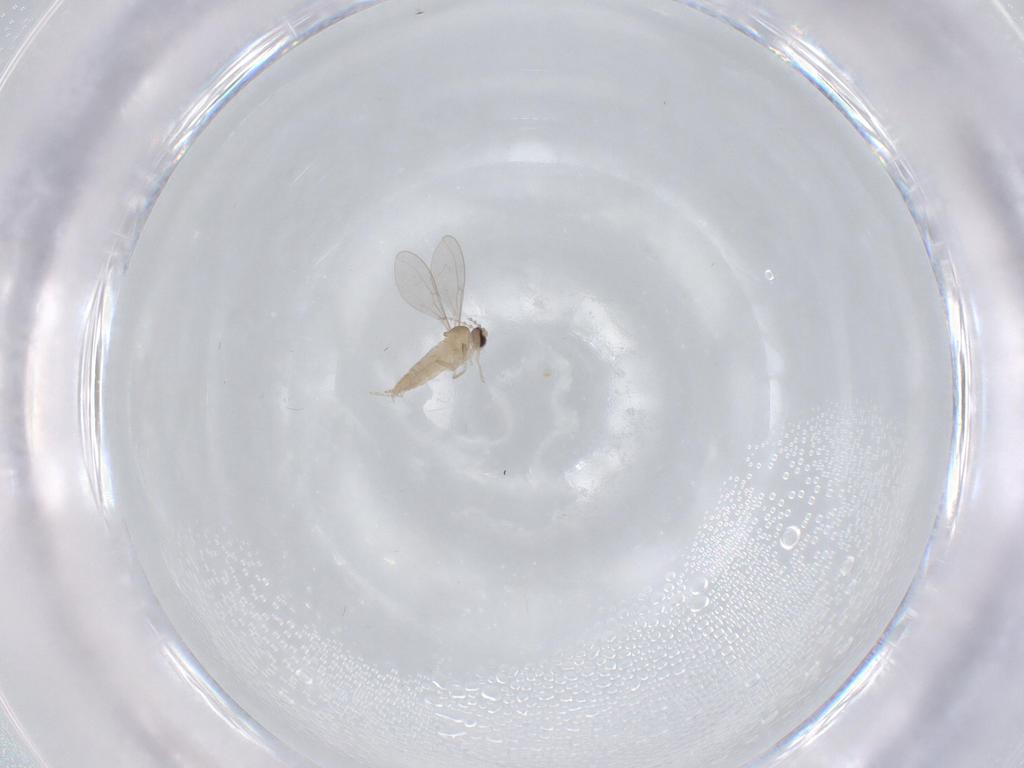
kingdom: Animalia
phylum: Arthropoda
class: Insecta
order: Diptera
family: Cecidomyiidae
